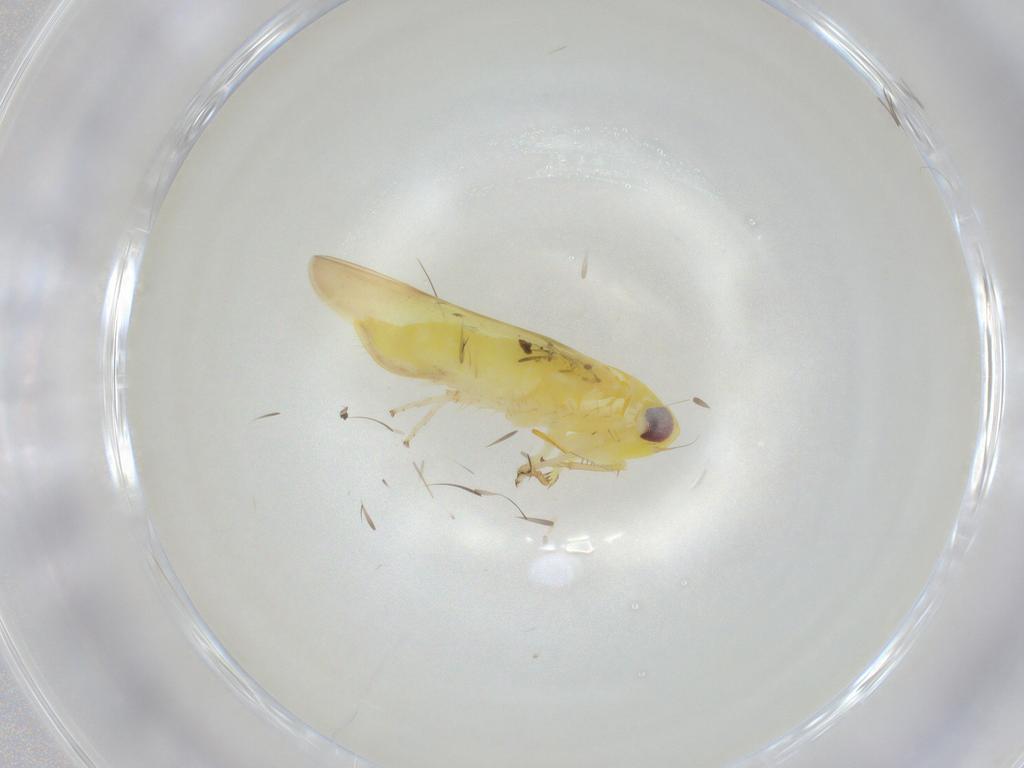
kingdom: Animalia
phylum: Arthropoda
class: Insecta
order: Hemiptera
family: Cicadellidae
